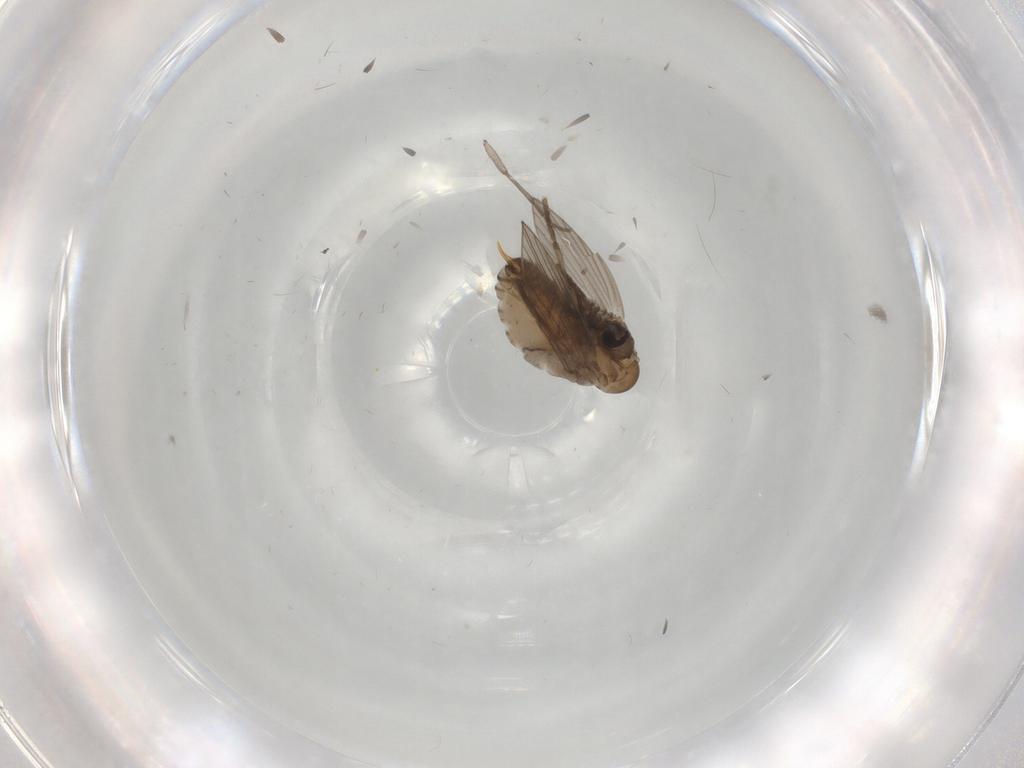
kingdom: Animalia
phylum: Arthropoda
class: Insecta
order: Diptera
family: Psychodidae
